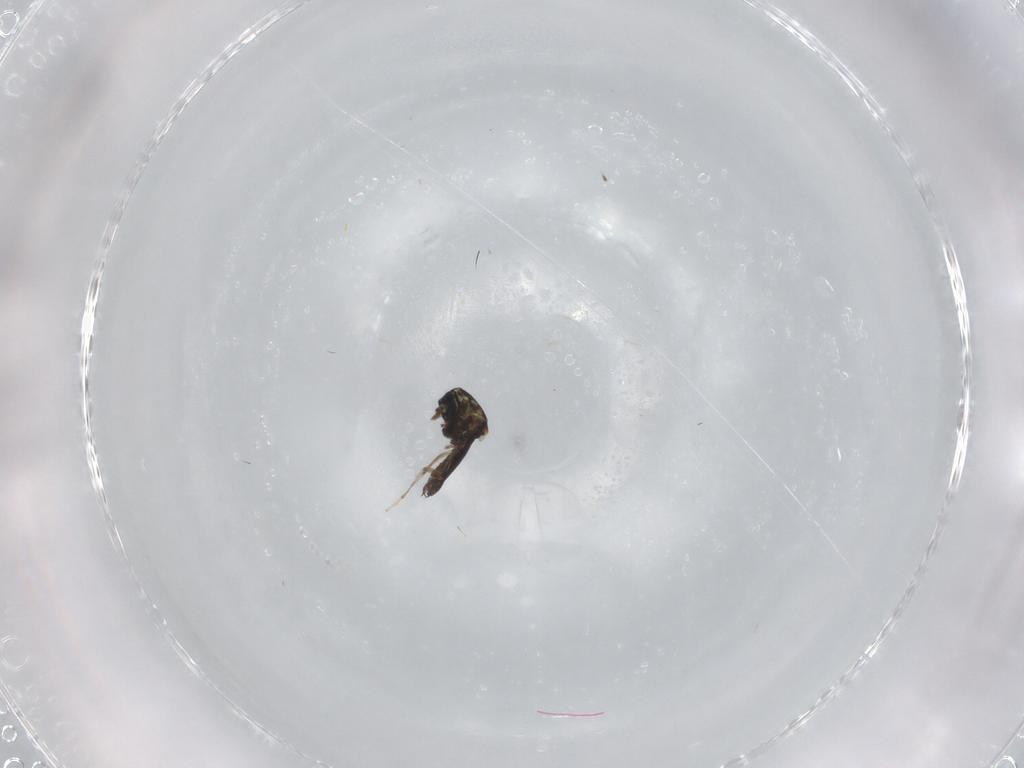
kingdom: Animalia
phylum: Arthropoda
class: Insecta
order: Diptera
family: Ceratopogonidae
